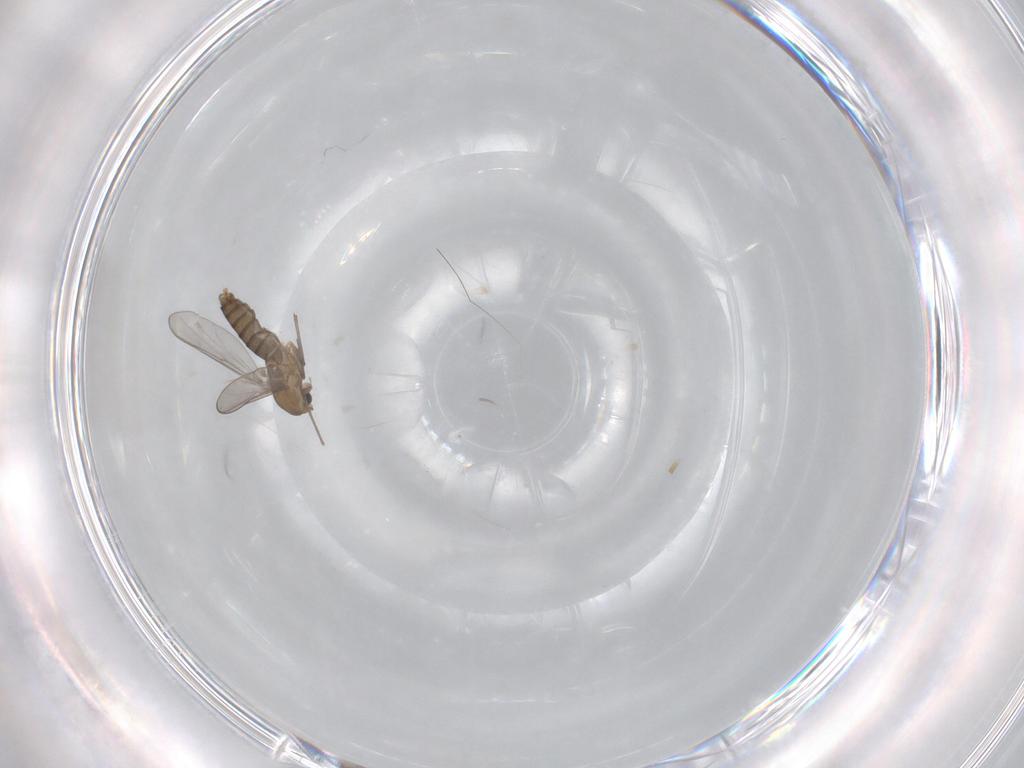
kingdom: Animalia
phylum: Arthropoda
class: Insecta
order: Diptera
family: Chironomidae
